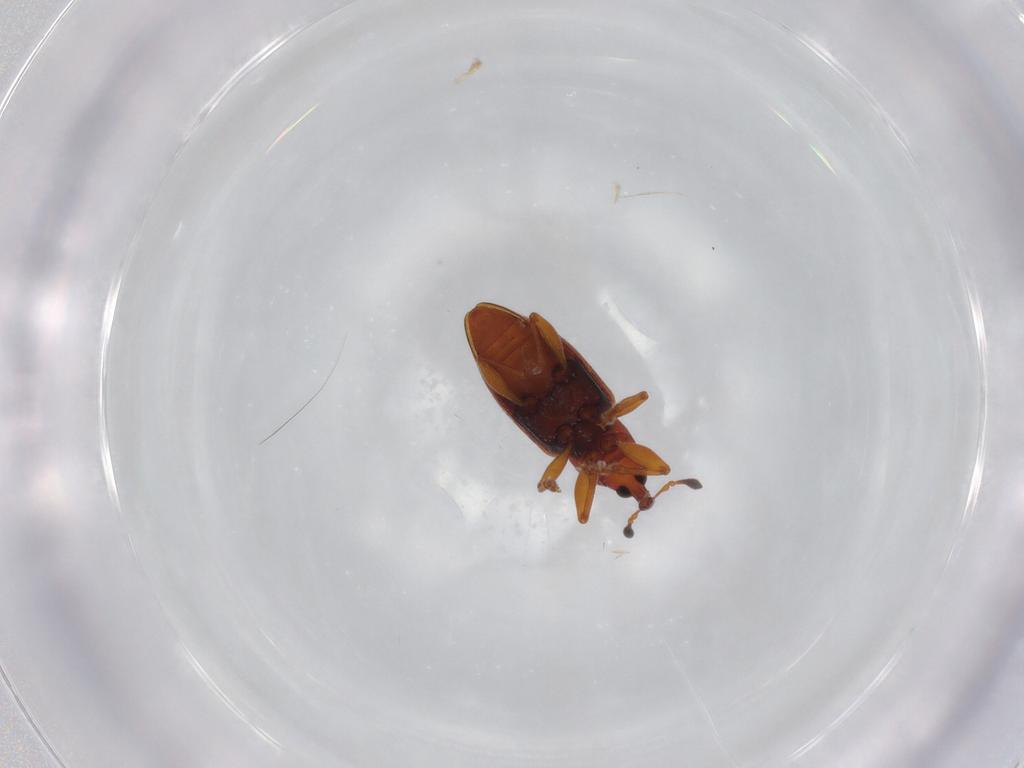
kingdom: Animalia
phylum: Arthropoda
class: Insecta
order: Coleoptera
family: Curculionidae
